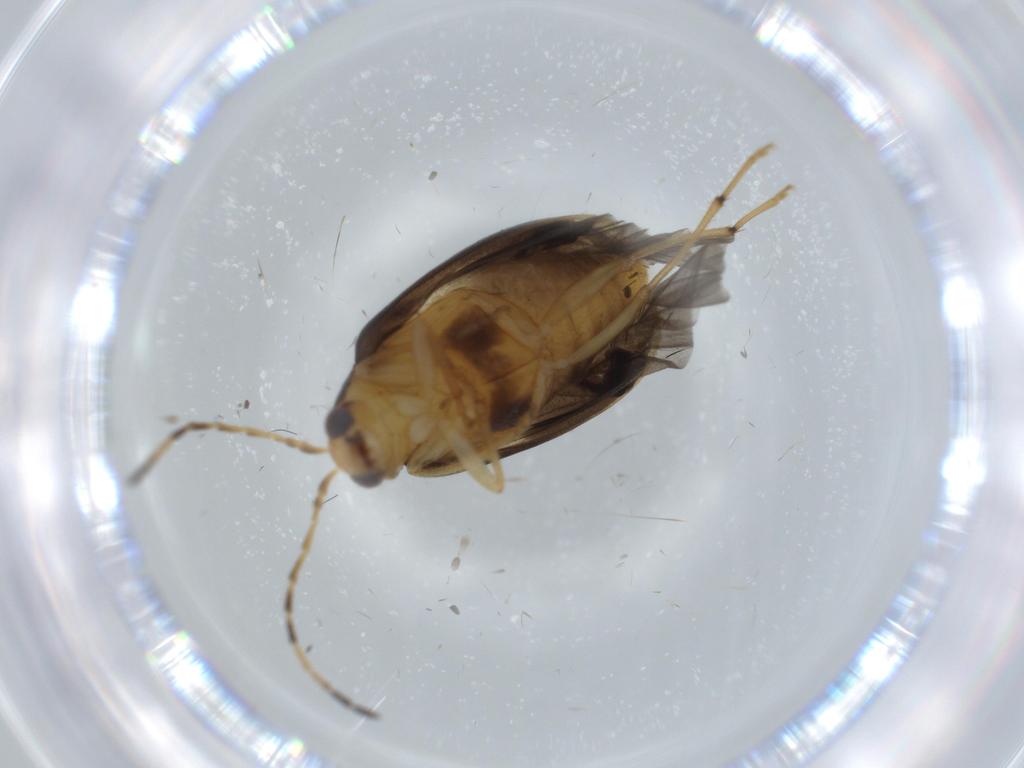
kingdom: Animalia
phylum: Arthropoda
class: Insecta
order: Coleoptera
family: Chrysomelidae
